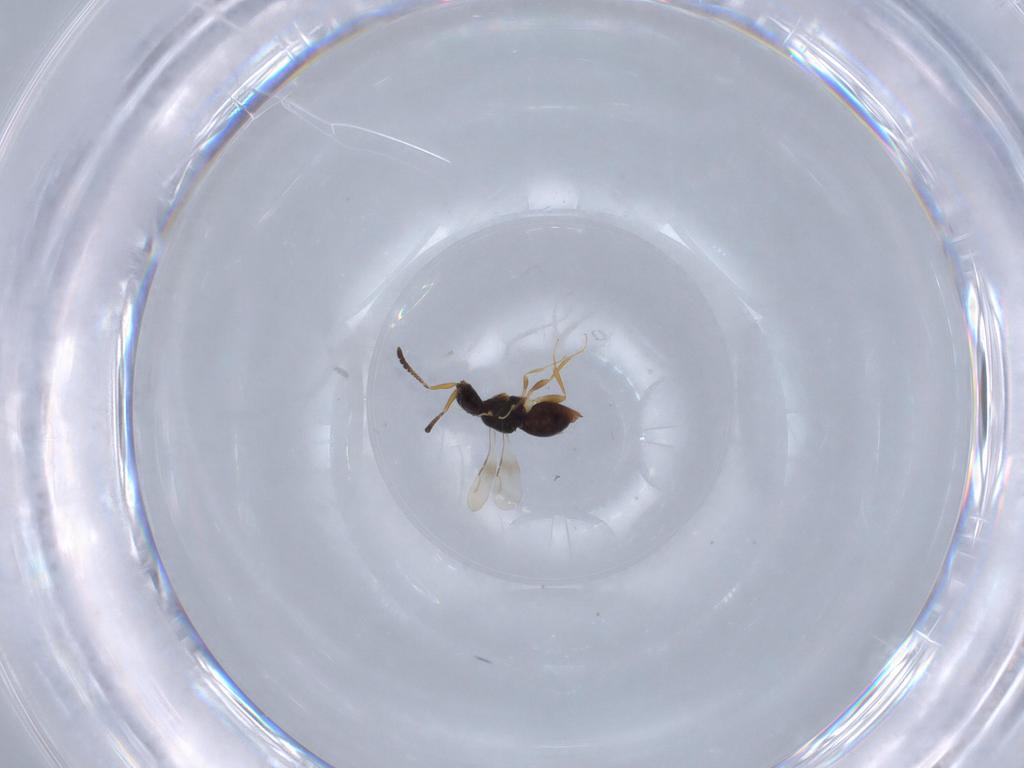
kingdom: Animalia
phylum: Arthropoda
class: Insecta
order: Hymenoptera
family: Ceraphronidae
